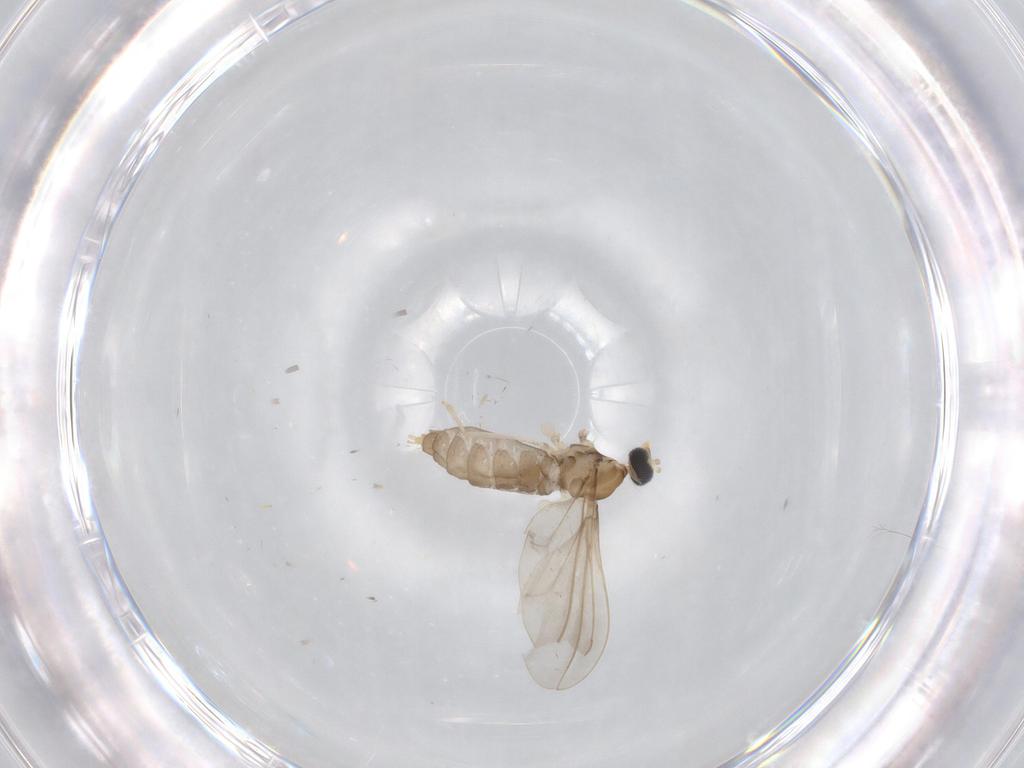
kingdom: Animalia
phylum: Arthropoda
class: Insecta
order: Diptera
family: Cecidomyiidae
